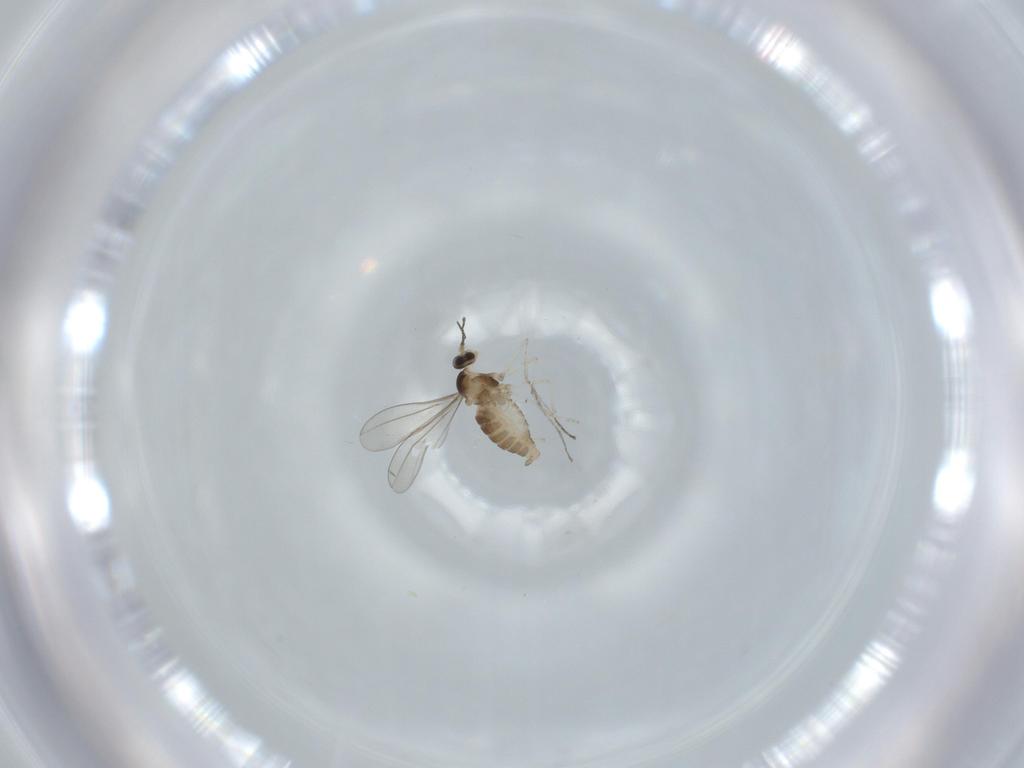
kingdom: Animalia
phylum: Arthropoda
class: Insecta
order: Diptera
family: Cecidomyiidae
